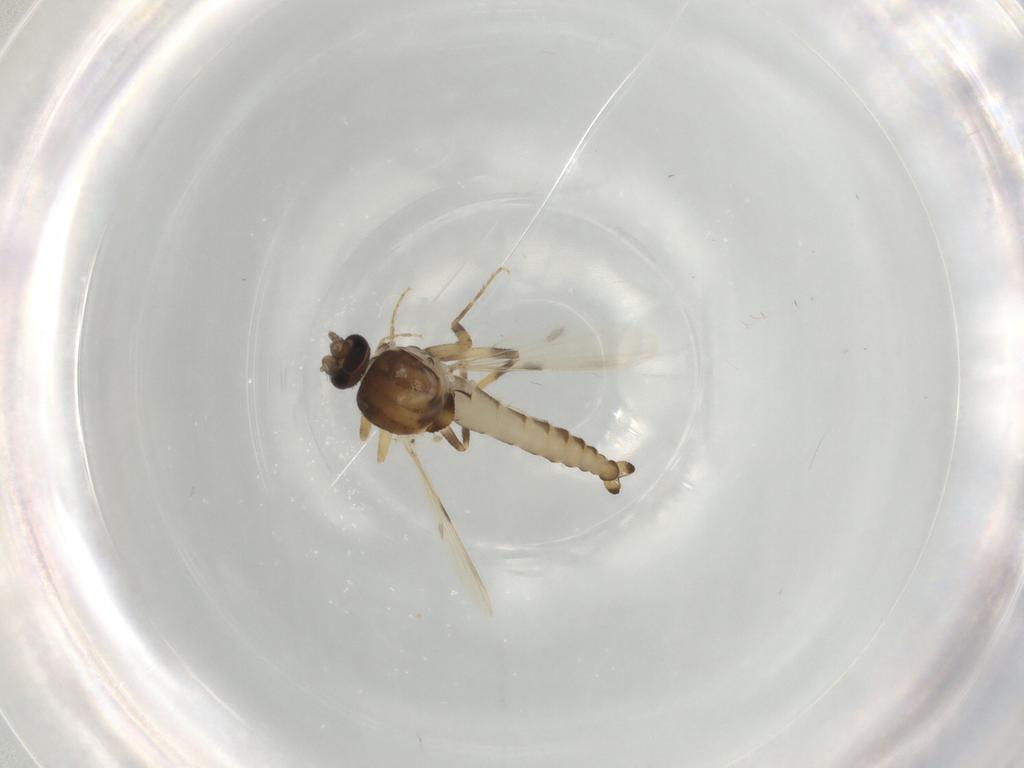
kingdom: Animalia
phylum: Arthropoda
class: Insecta
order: Diptera
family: Ceratopogonidae
